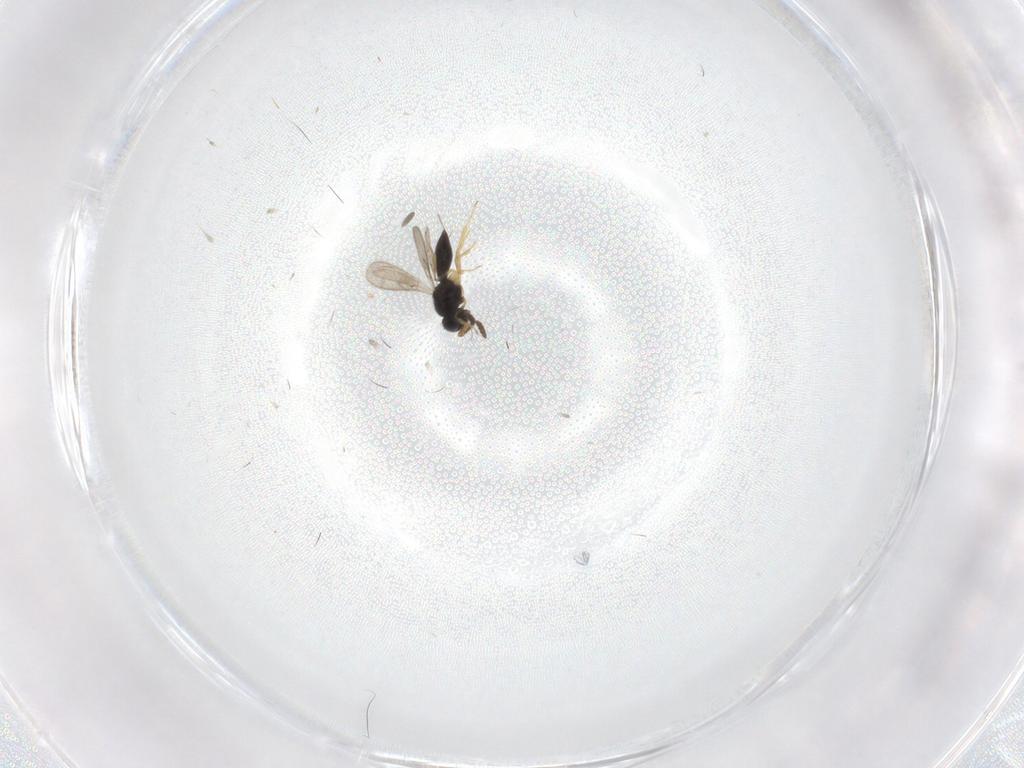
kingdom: Animalia
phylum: Arthropoda
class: Insecta
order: Hymenoptera
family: Scelionidae
